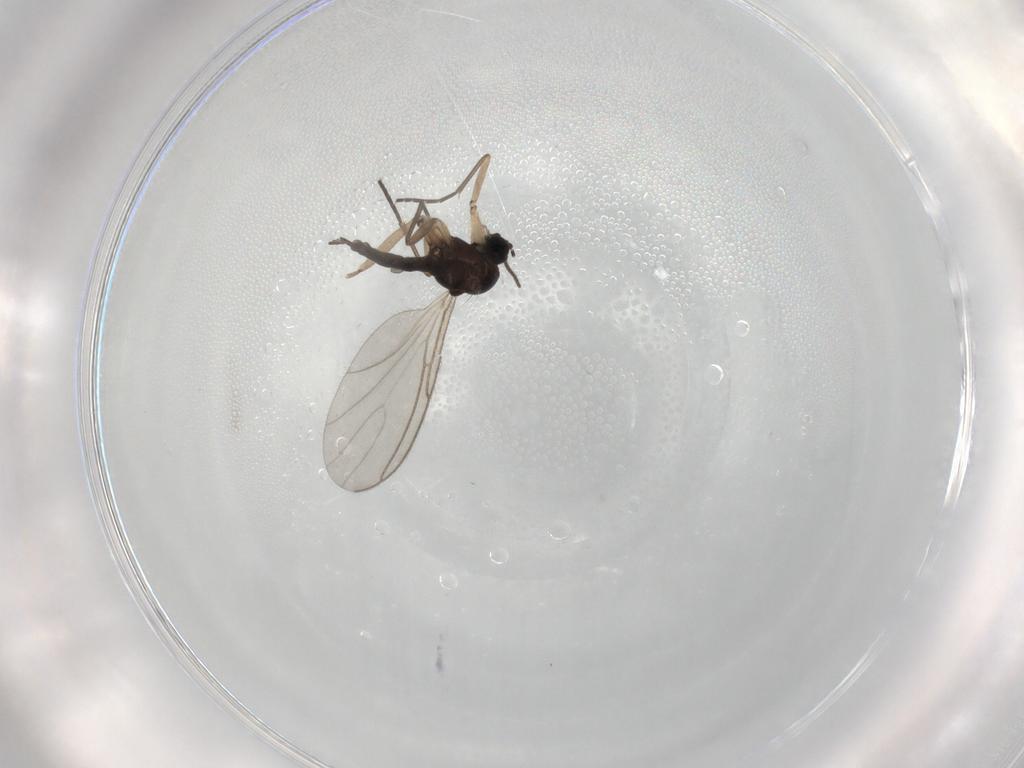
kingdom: Animalia
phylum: Arthropoda
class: Insecta
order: Diptera
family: Sciaridae
